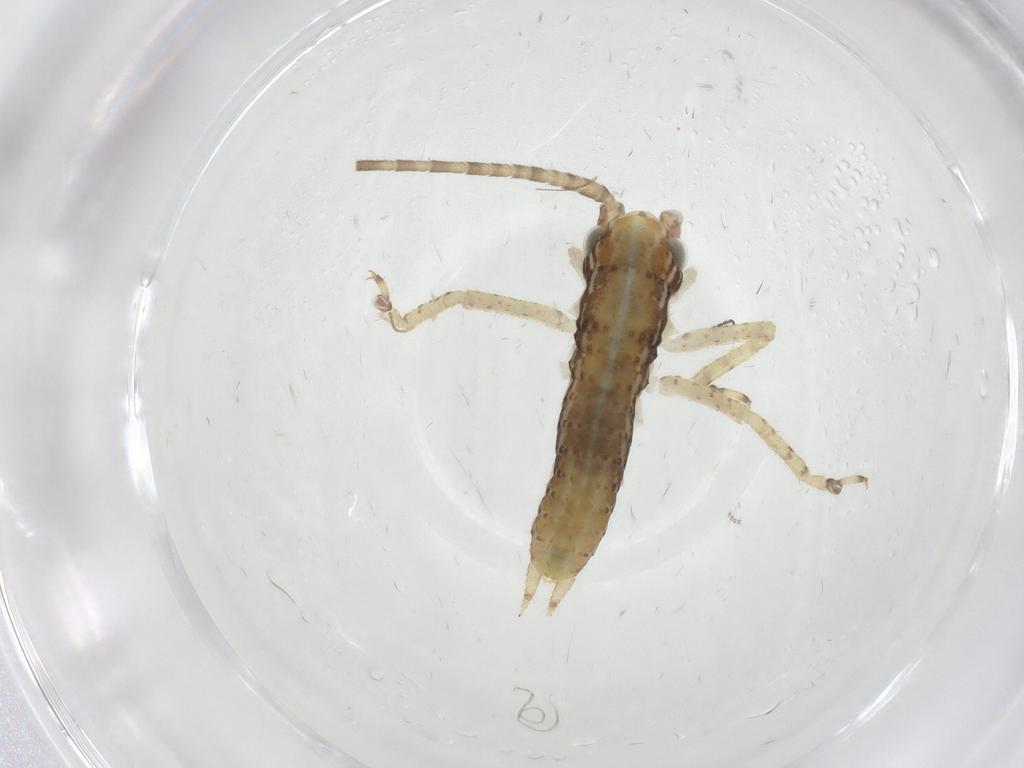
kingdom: Animalia
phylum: Arthropoda
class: Insecta
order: Orthoptera
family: Gryllidae
